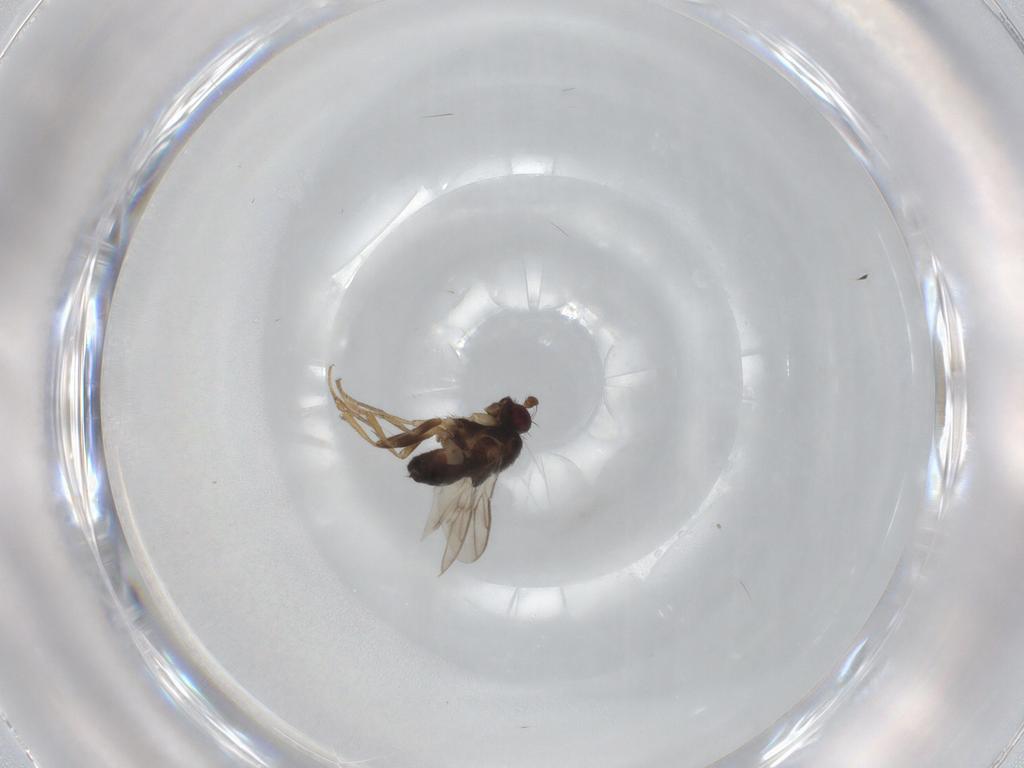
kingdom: Animalia
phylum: Arthropoda
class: Insecta
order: Diptera
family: Sphaeroceridae
